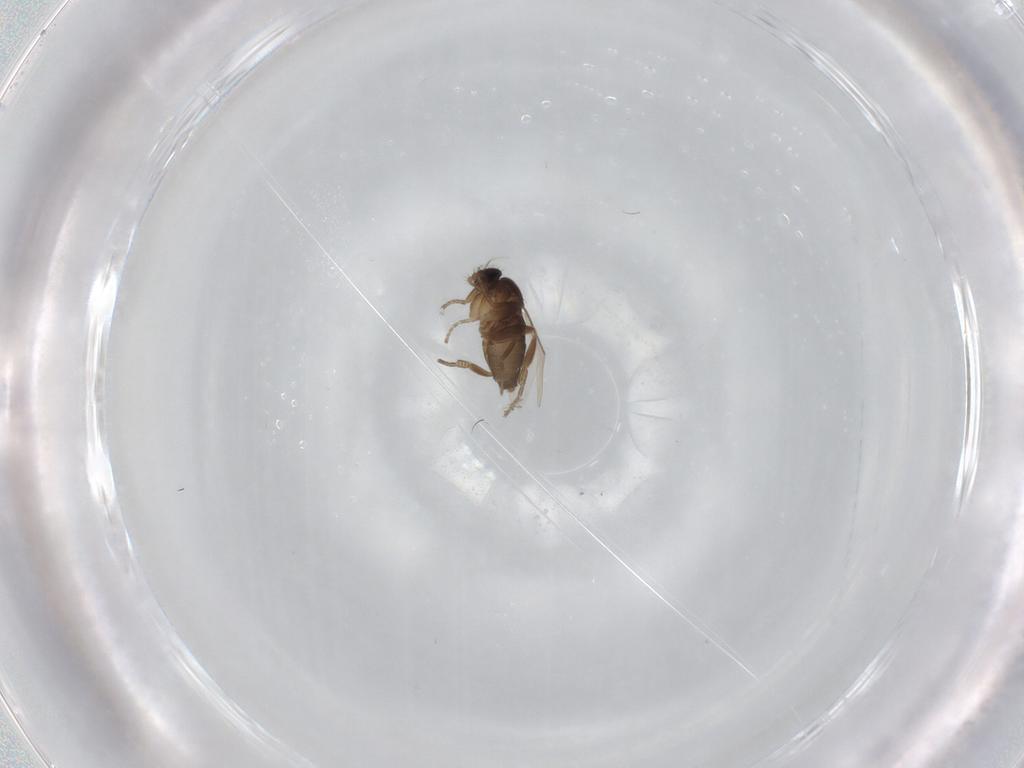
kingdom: Animalia
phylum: Arthropoda
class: Insecta
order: Diptera
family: Phoridae
